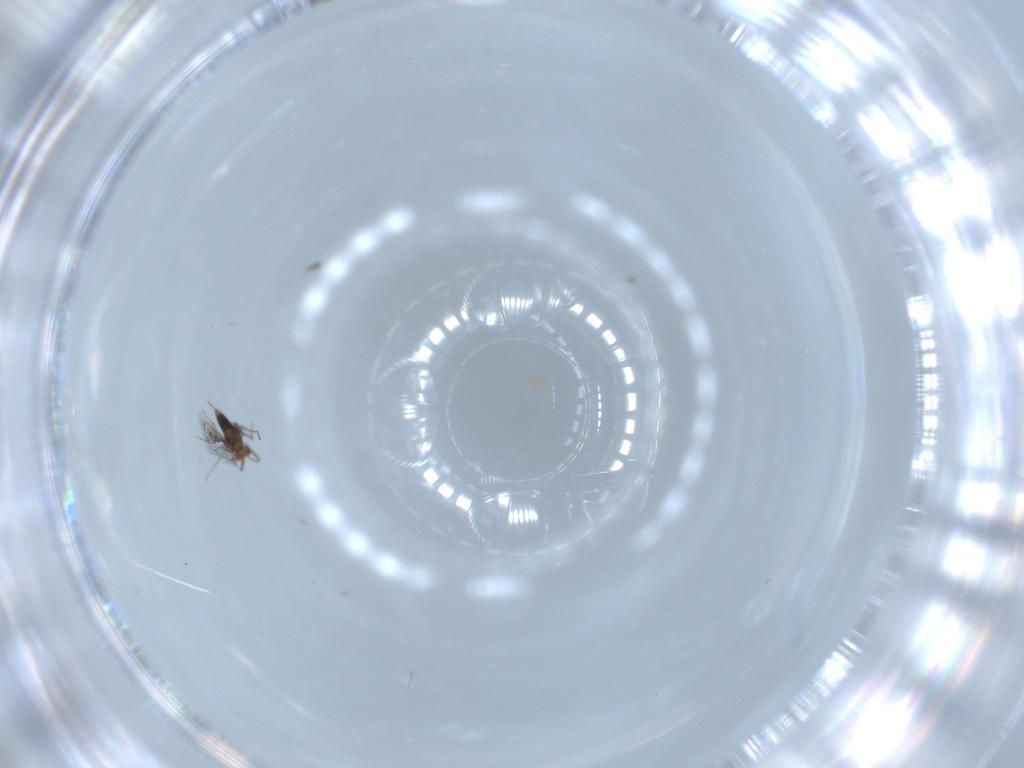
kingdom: Animalia
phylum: Arthropoda
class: Insecta
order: Hymenoptera
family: Trichogrammatidae
